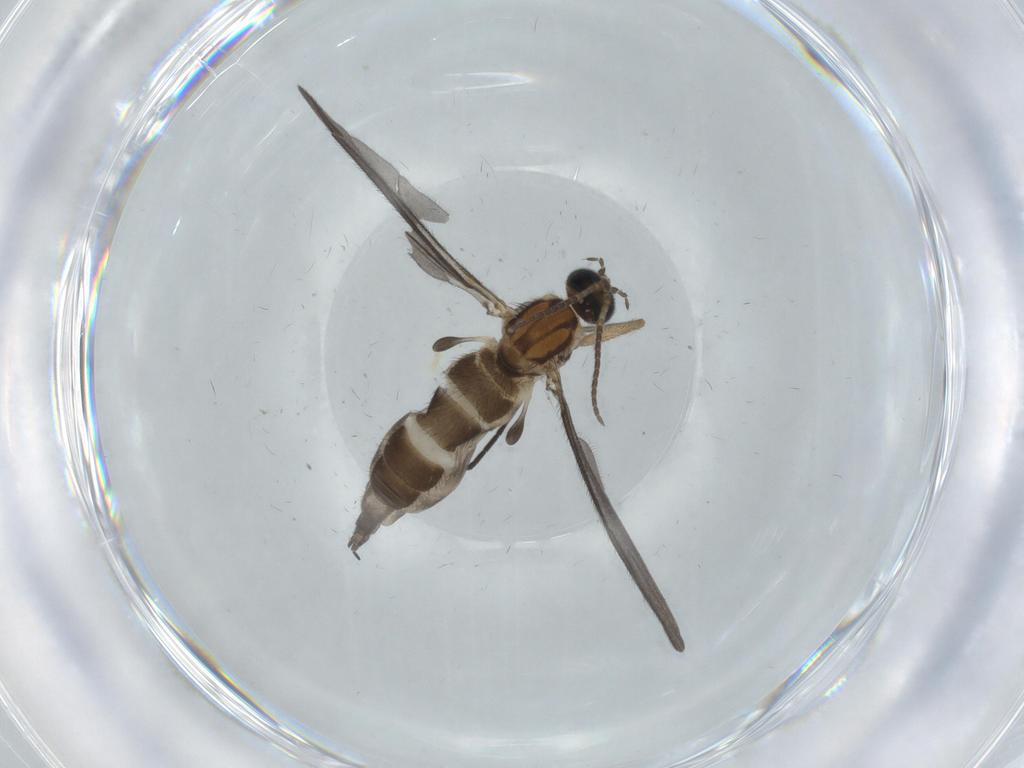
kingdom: Animalia
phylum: Arthropoda
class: Insecta
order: Diptera
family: Sciaridae
